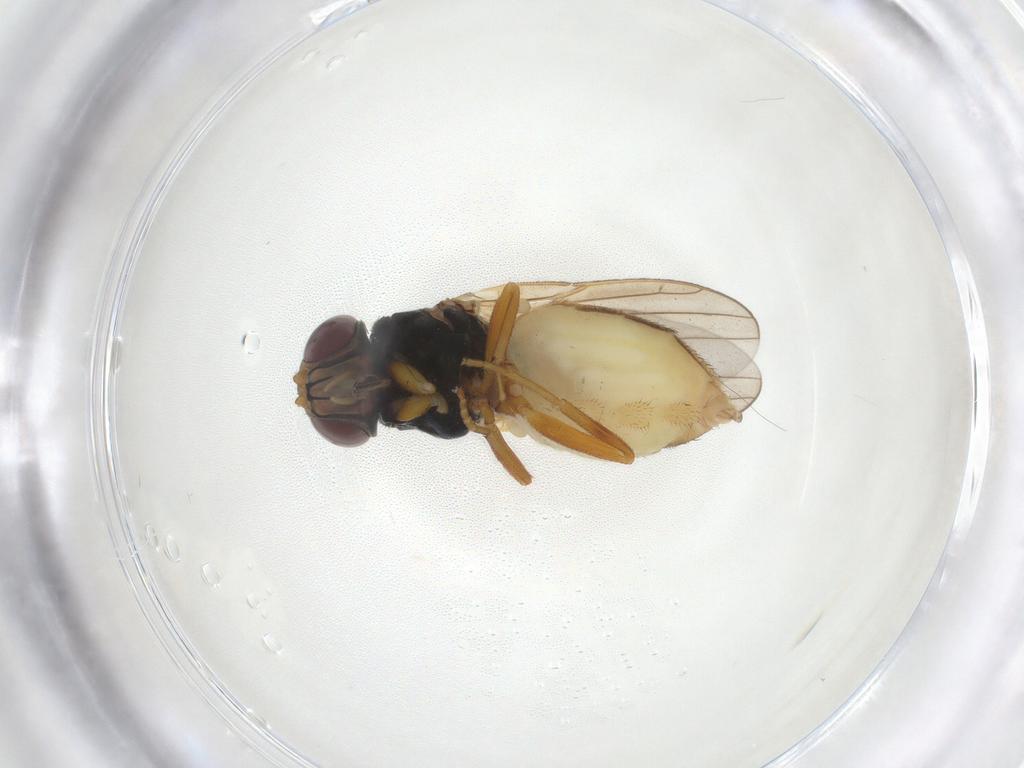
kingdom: Animalia
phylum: Arthropoda
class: Insecta
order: Diptera
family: Chloropidae
